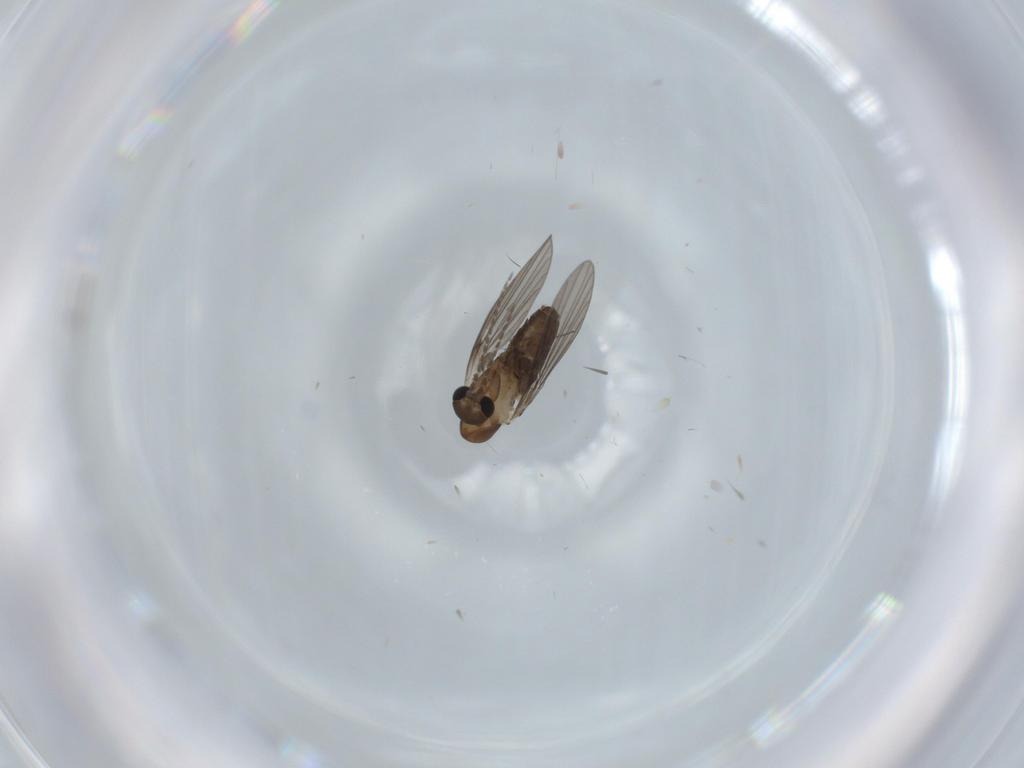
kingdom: Animalia
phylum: Arthropoda
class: Insecta
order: Diptera
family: Psychodidae
